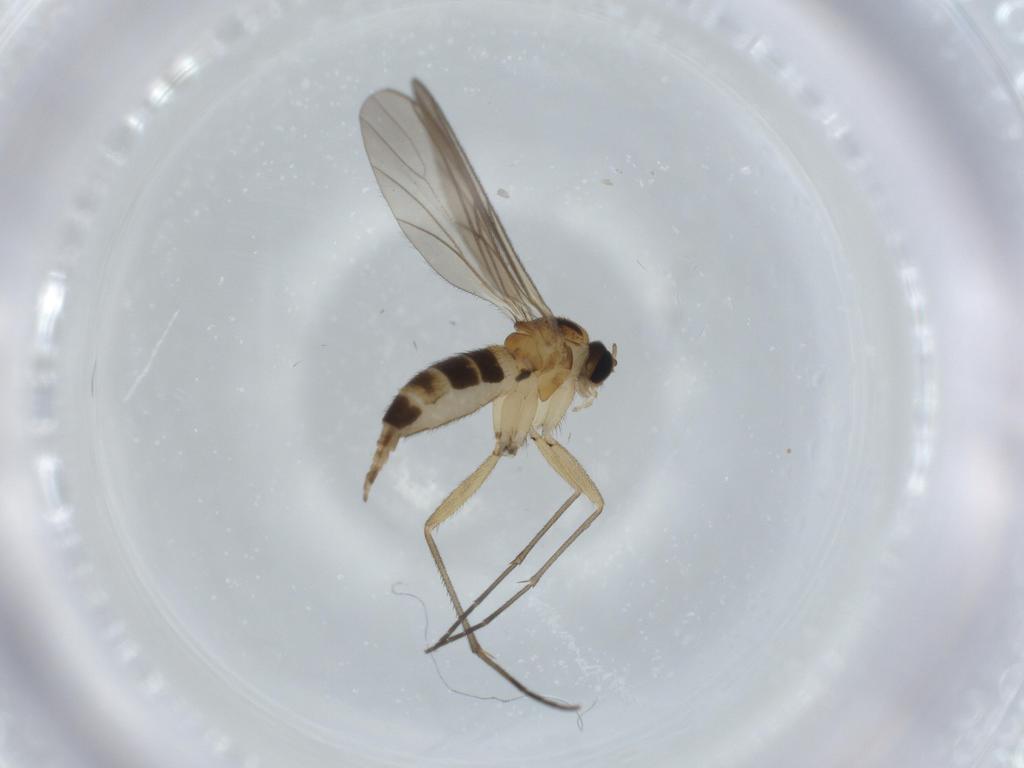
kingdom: Animalia
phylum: Arthropoda
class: Insecta
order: Diptera
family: Sciaridae
